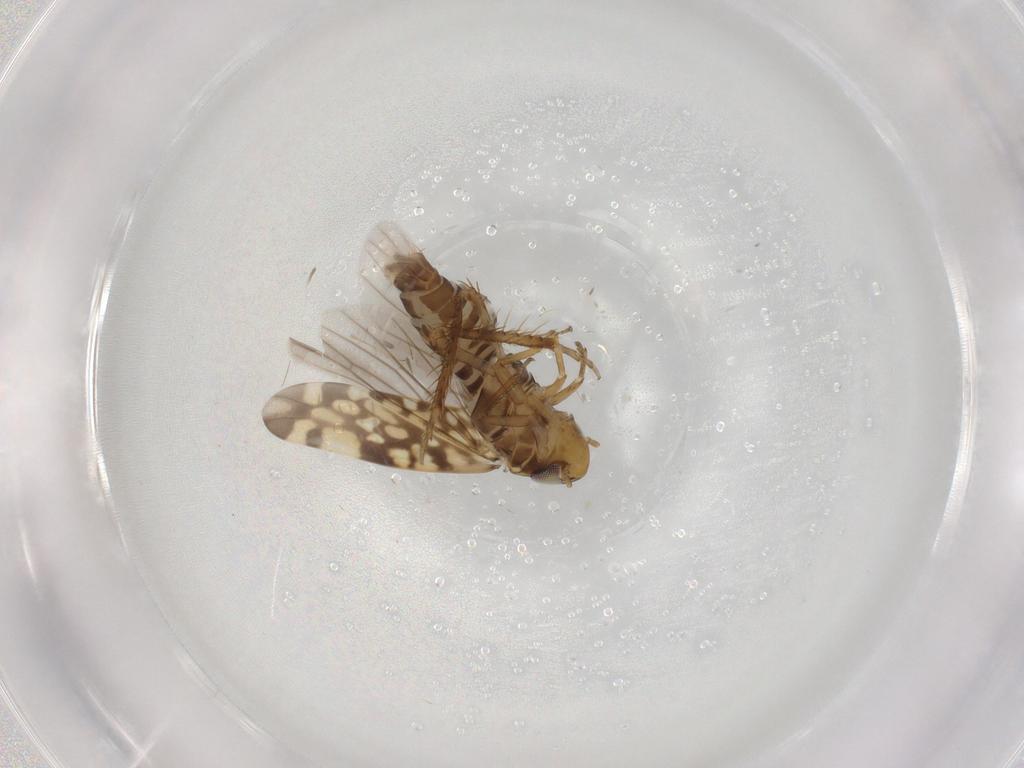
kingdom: Animalia
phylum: Arthropoda
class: Insecta
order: Hemiptera
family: Cicadellidae
